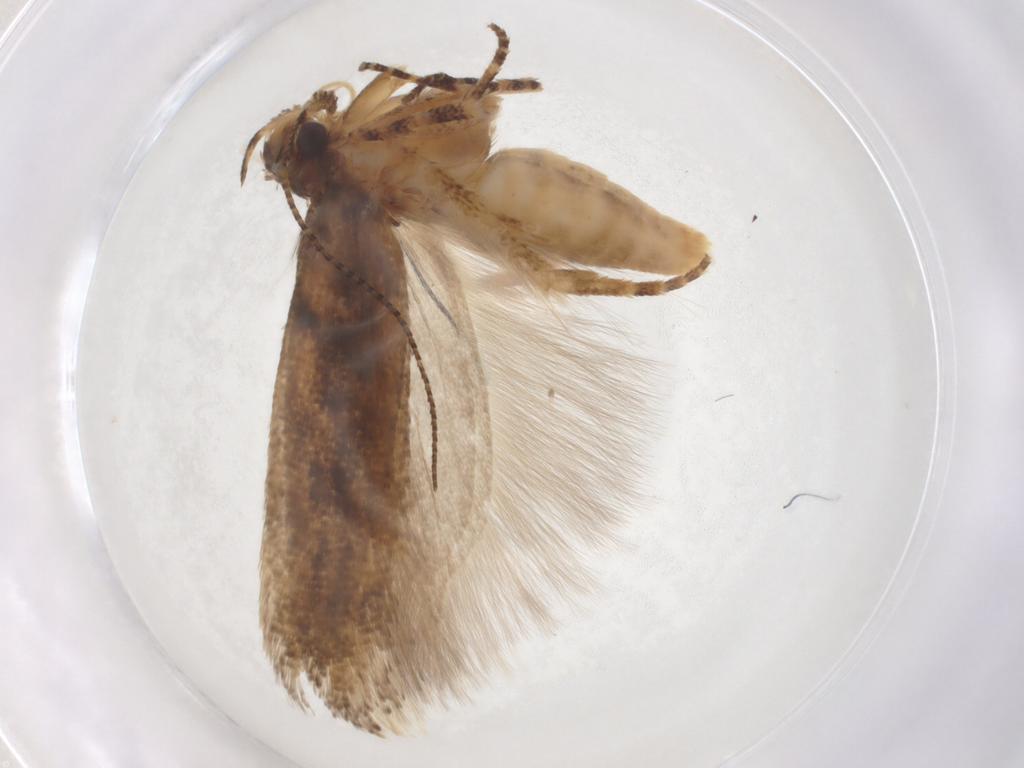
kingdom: Animalia
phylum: Arthropoda
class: Insecta
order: Lepidoptera
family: Gelechiidae
